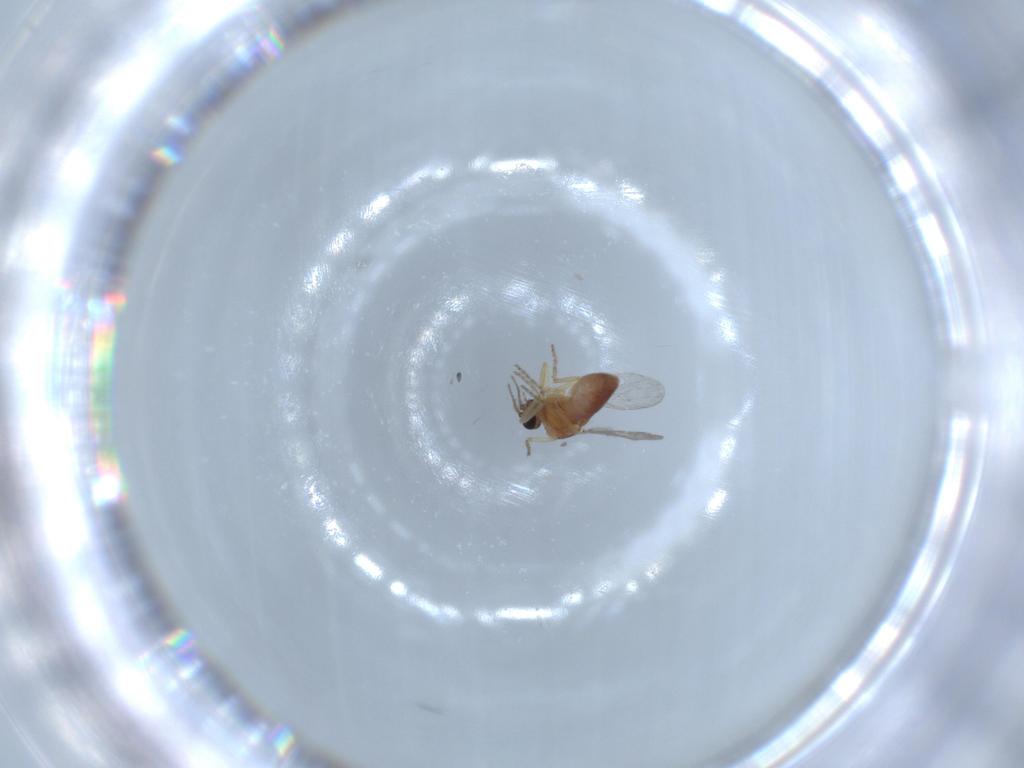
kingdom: Animalia
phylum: Arthropoda
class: Insecta
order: Diptera
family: Ceratopogonidae
